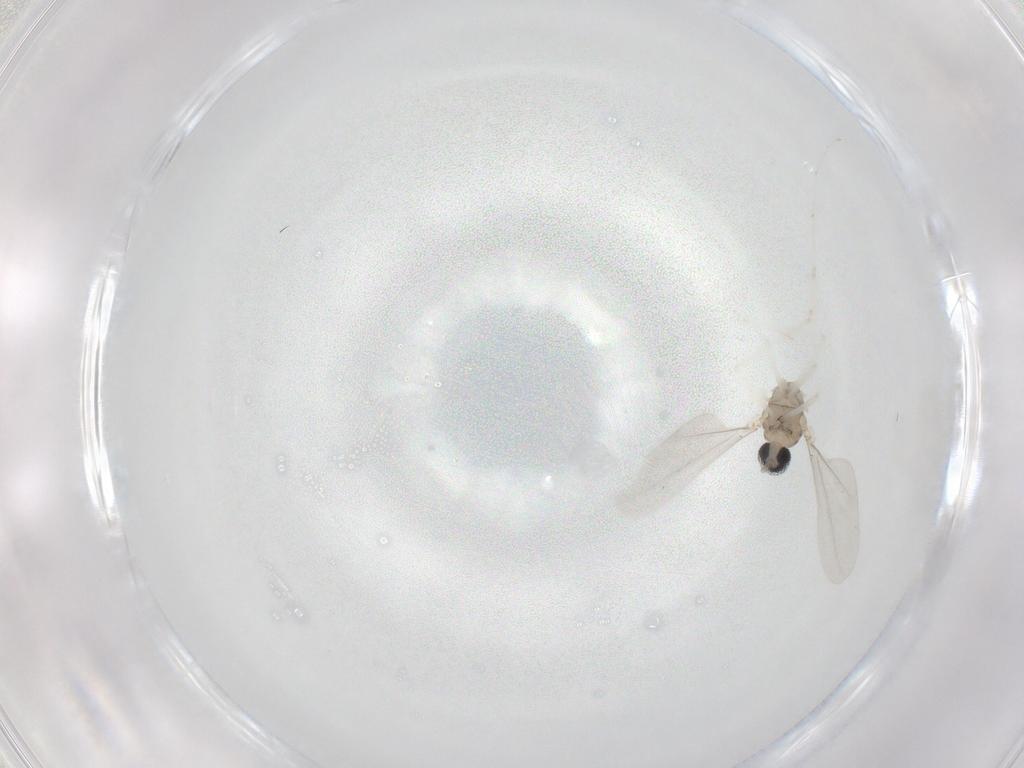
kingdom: Animalia
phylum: Arthropoda
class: Insecta
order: Diptera
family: Cecidomyiidae
